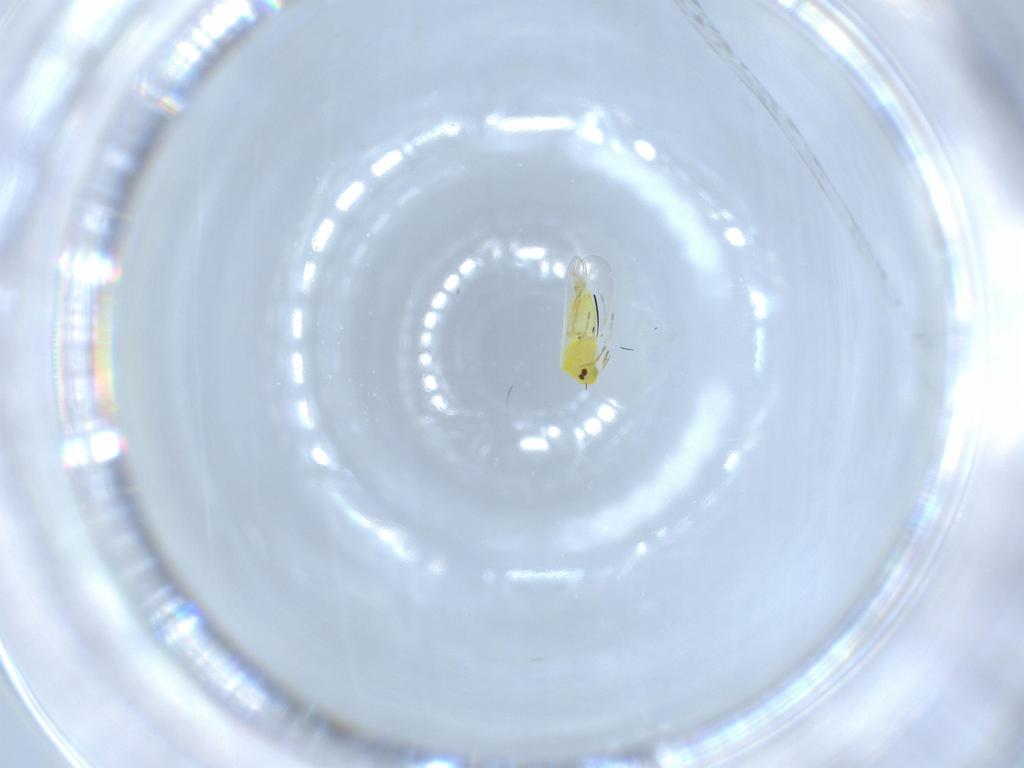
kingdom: Animalia
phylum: Arthropoda
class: Insecta
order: Hemiptera
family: Aleyrodidae
